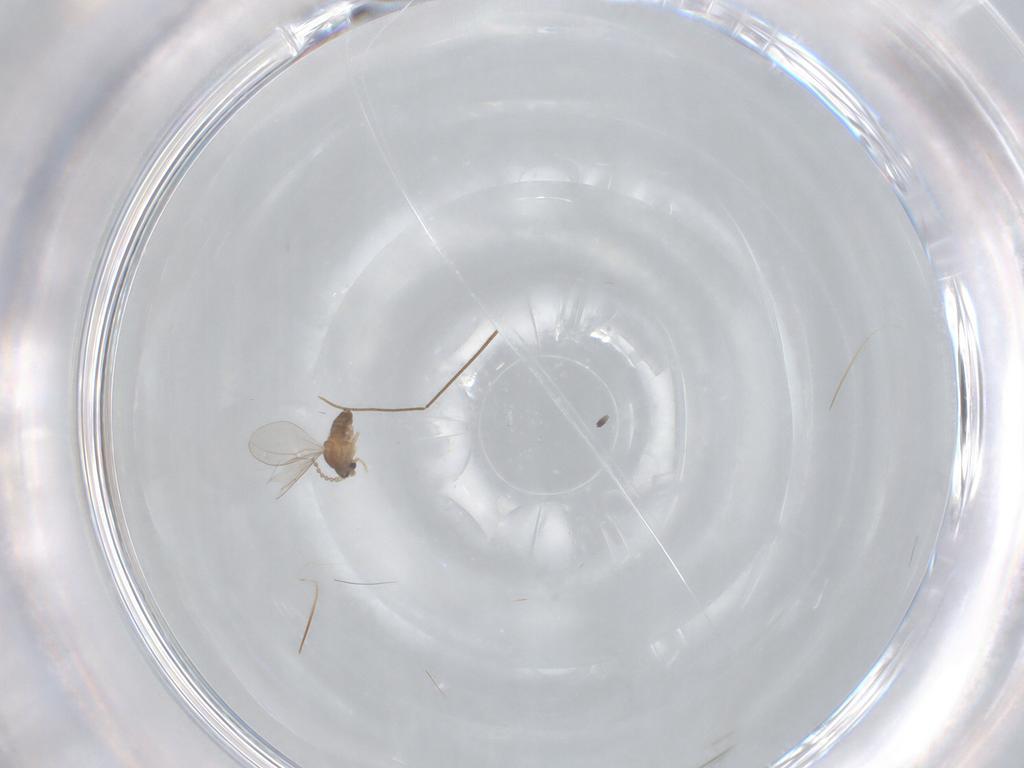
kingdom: Animalia
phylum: Arthropoda
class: Insecta
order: Diptera
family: Cecidomyiidae
